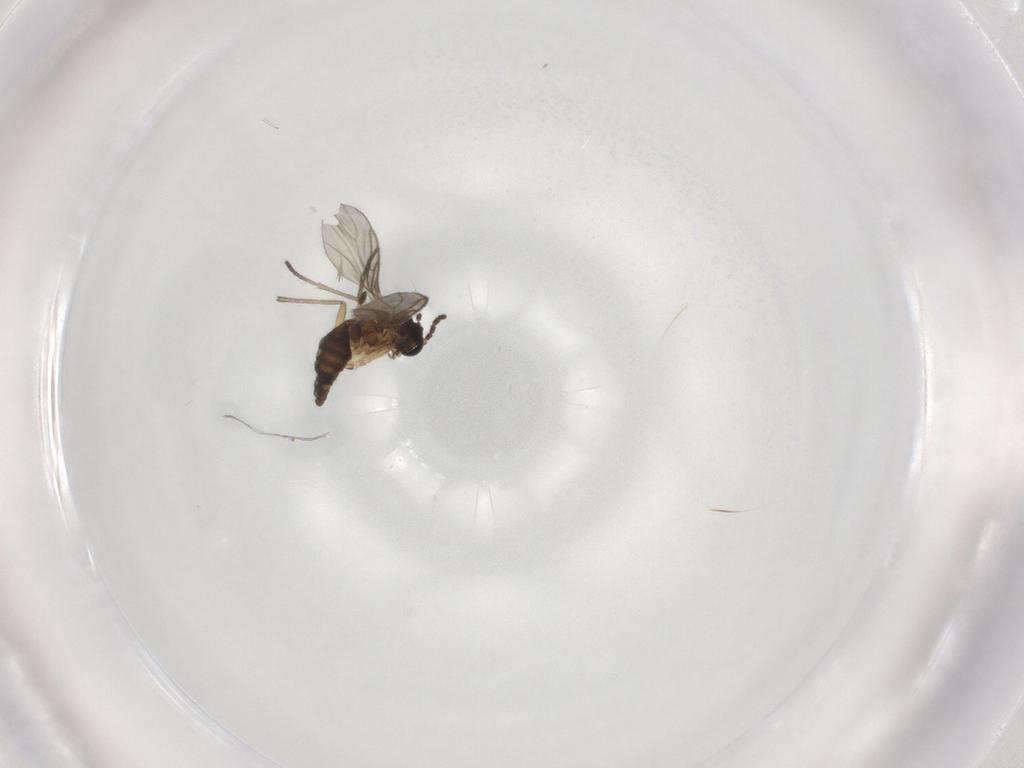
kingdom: Animalia
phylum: Arthropoda
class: Insecta
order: Diptera
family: Sciaridae
